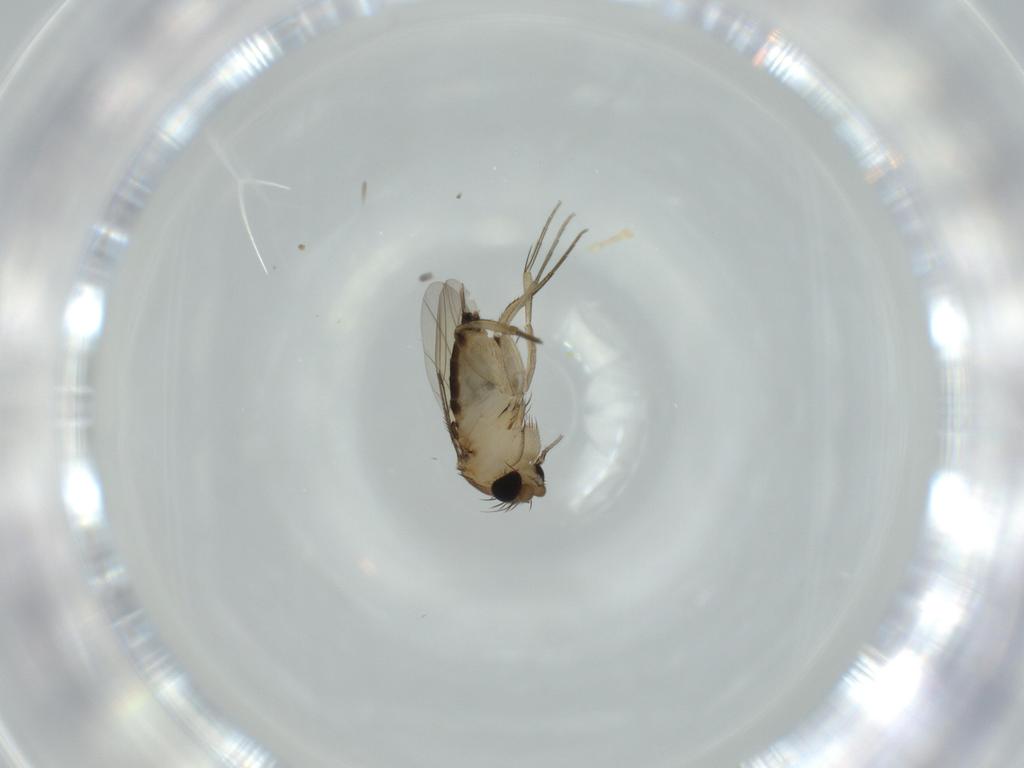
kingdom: Animalia
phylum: Arthropoda
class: Insecta
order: Diptera
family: Phoridae
